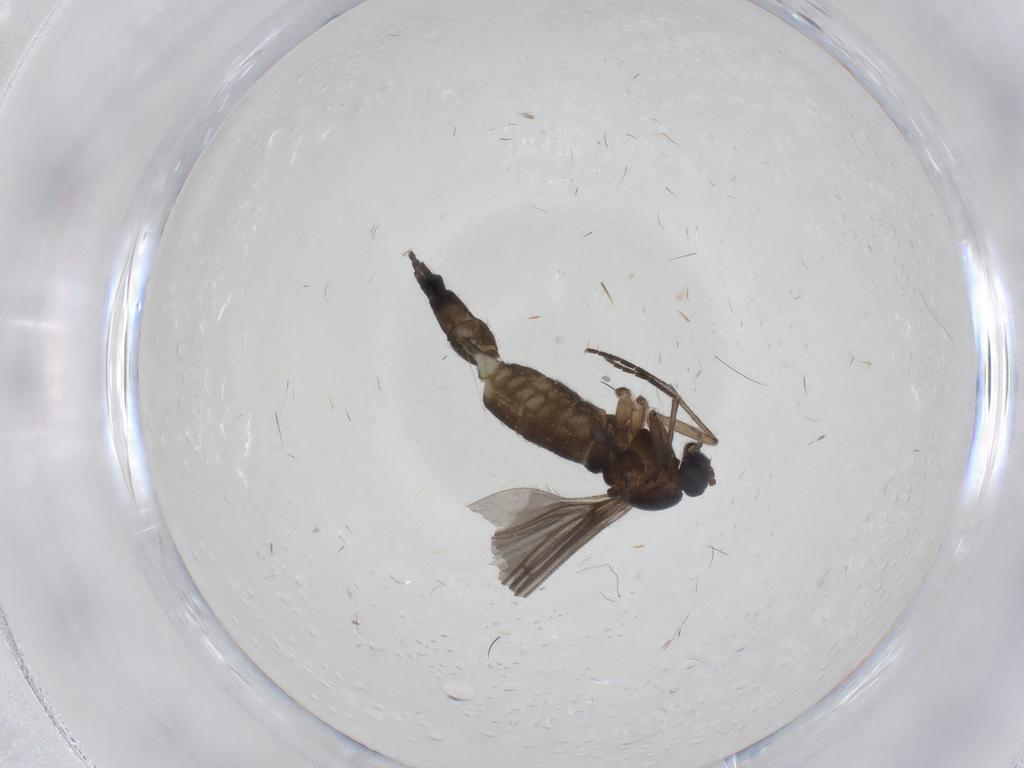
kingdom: Animalia
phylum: Arthropoda
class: Insecta
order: Diptera
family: Sciaridae
